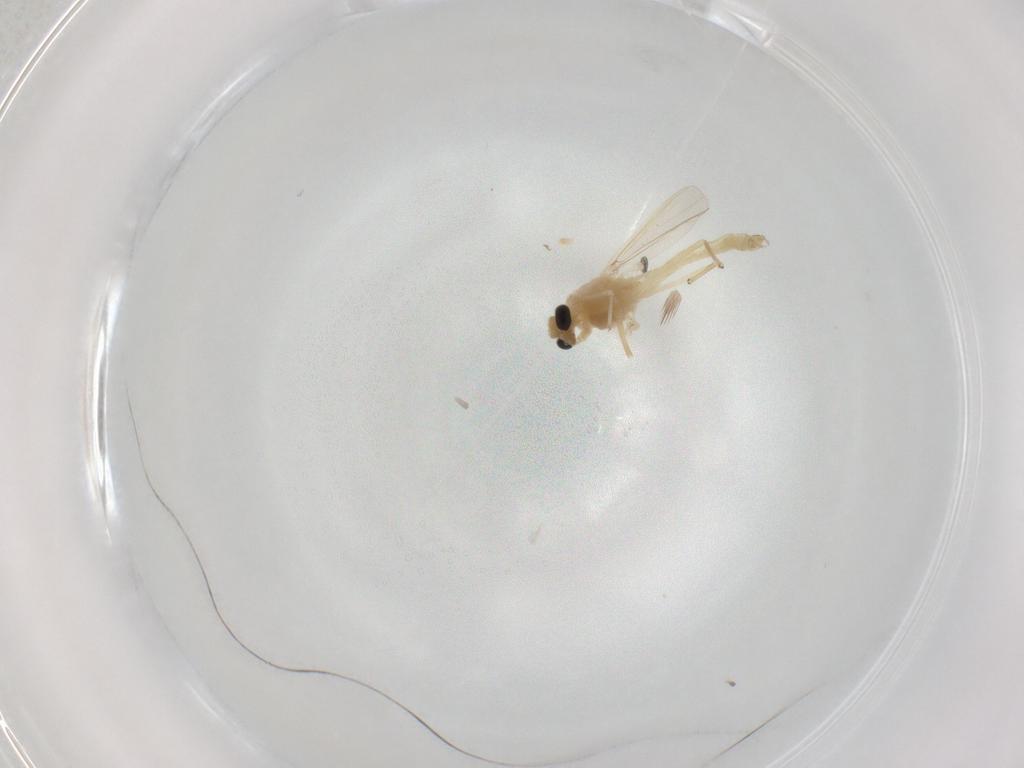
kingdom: Animalia
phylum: Arthropoda
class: Insecta
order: Diptera
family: Chironomidae
